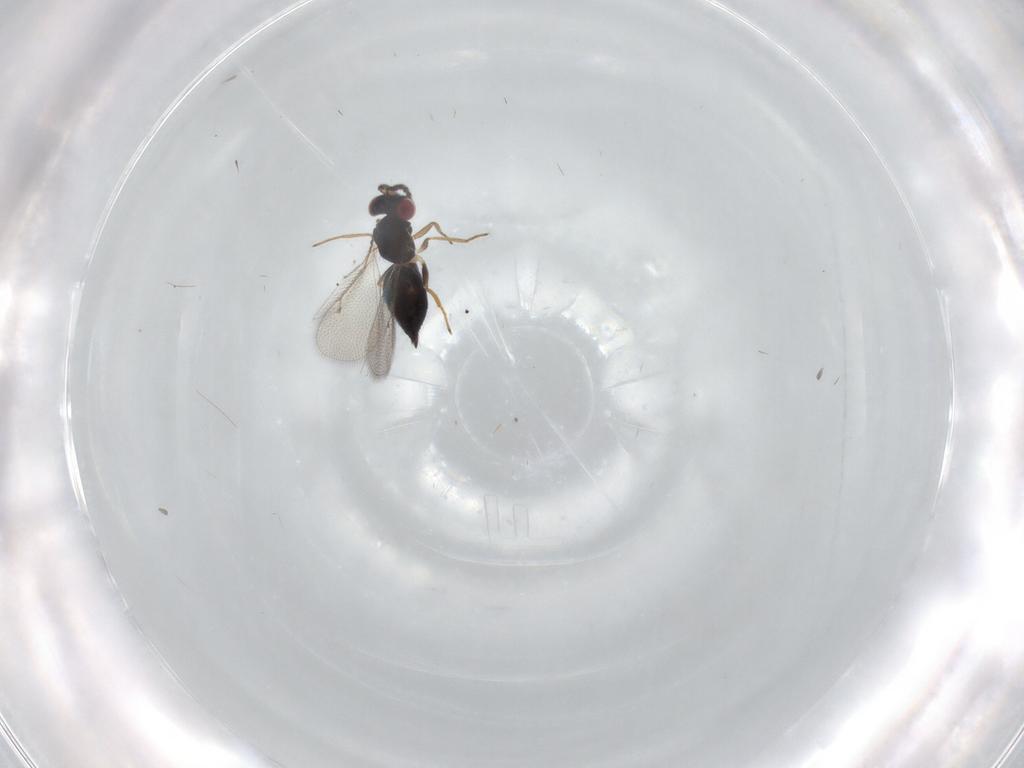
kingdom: Animalia
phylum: Arthropoda
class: Insecta
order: Hymenoptera
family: Eulophidae
